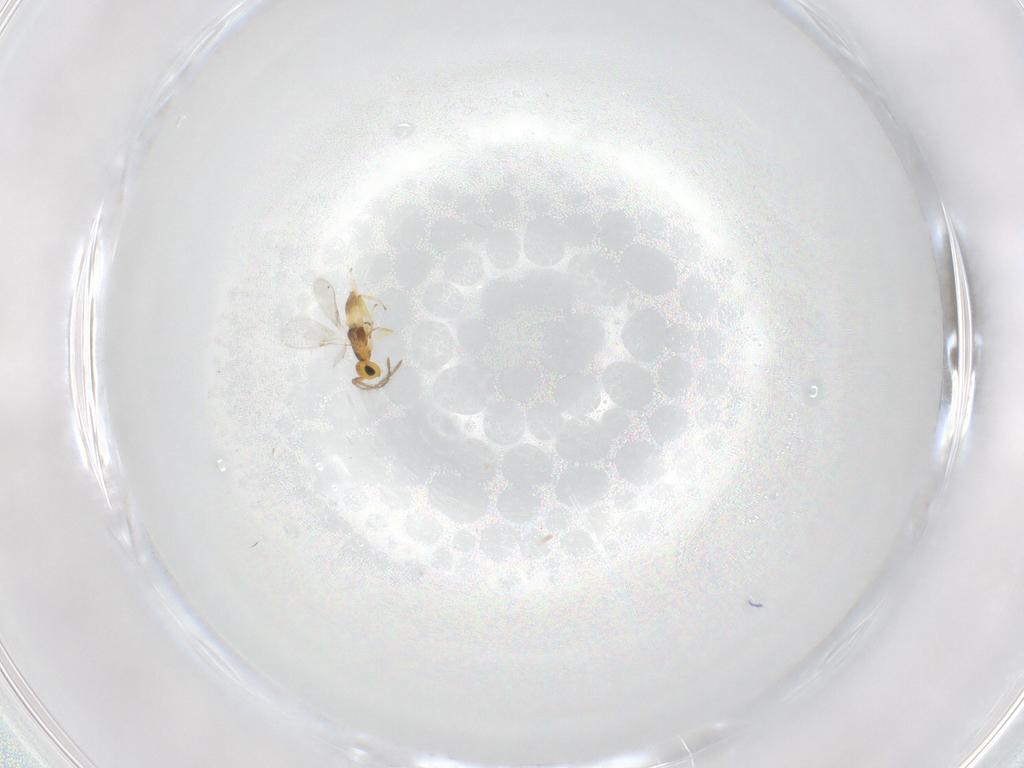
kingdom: Animalia
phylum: Arthropoda
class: Insecta
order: Hymenoptera
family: Encyrtidae
